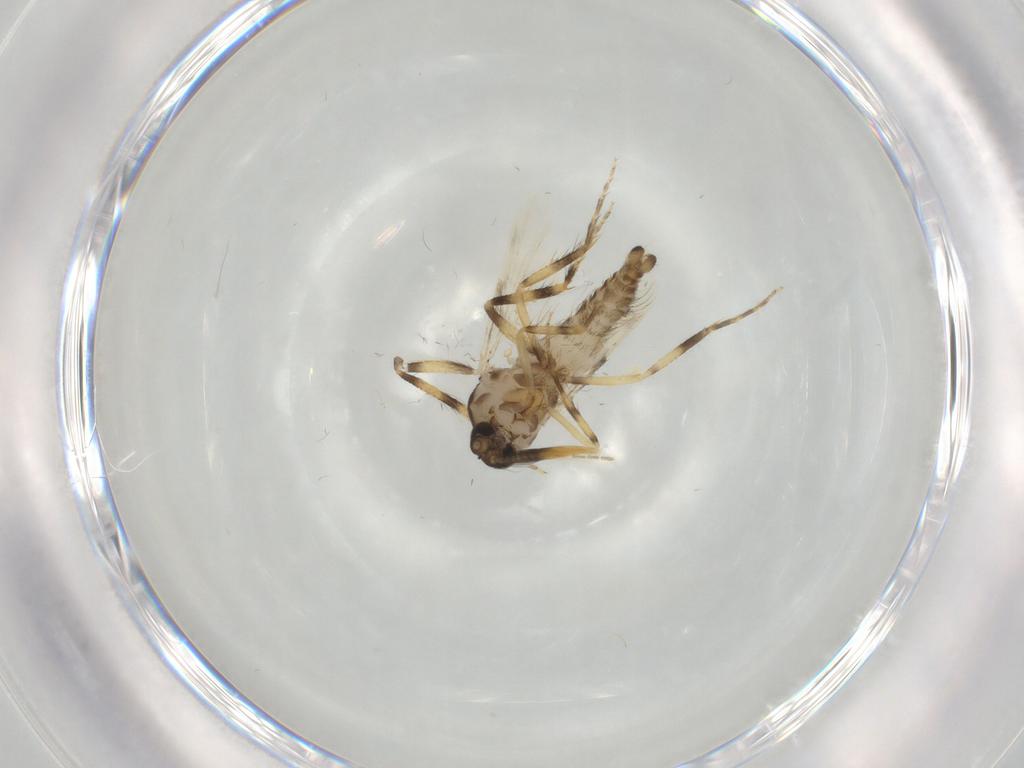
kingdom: Animalia
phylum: Arthropoda
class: Insecta
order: Diptera
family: Ceratopogonidae
